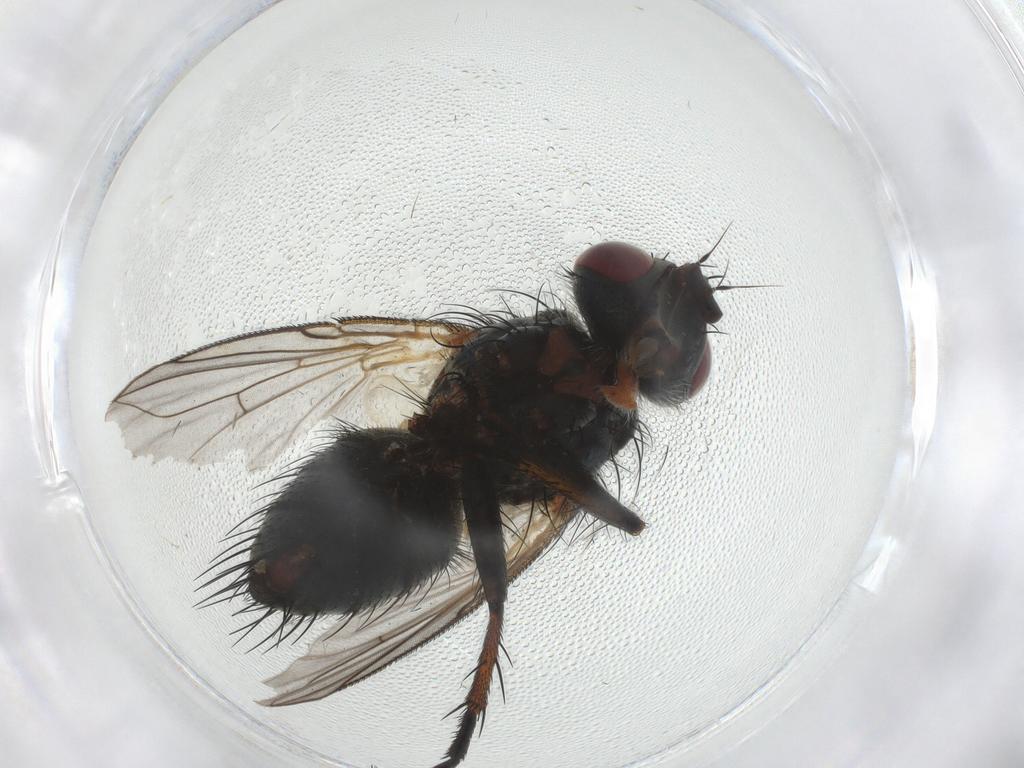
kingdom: Animalia
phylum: Arthropoda
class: Insecta
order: Diptera
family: Tachinidae
